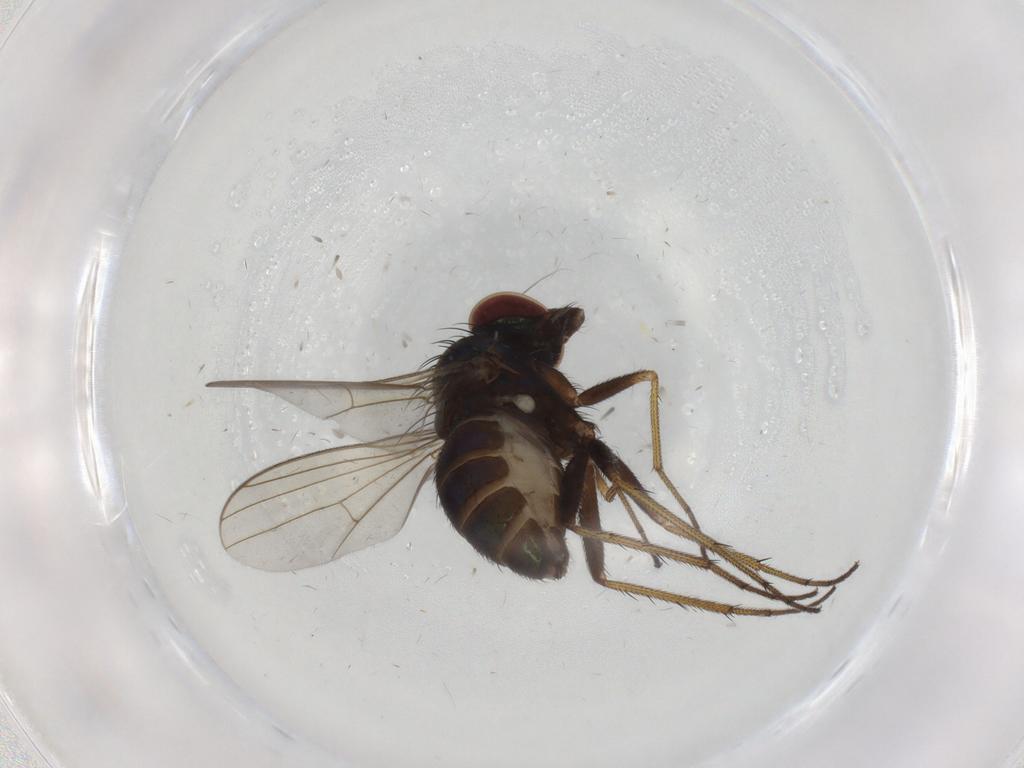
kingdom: Animalia
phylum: Arthropoda
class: Insecta
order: Diptera
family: Dolichopodidae
